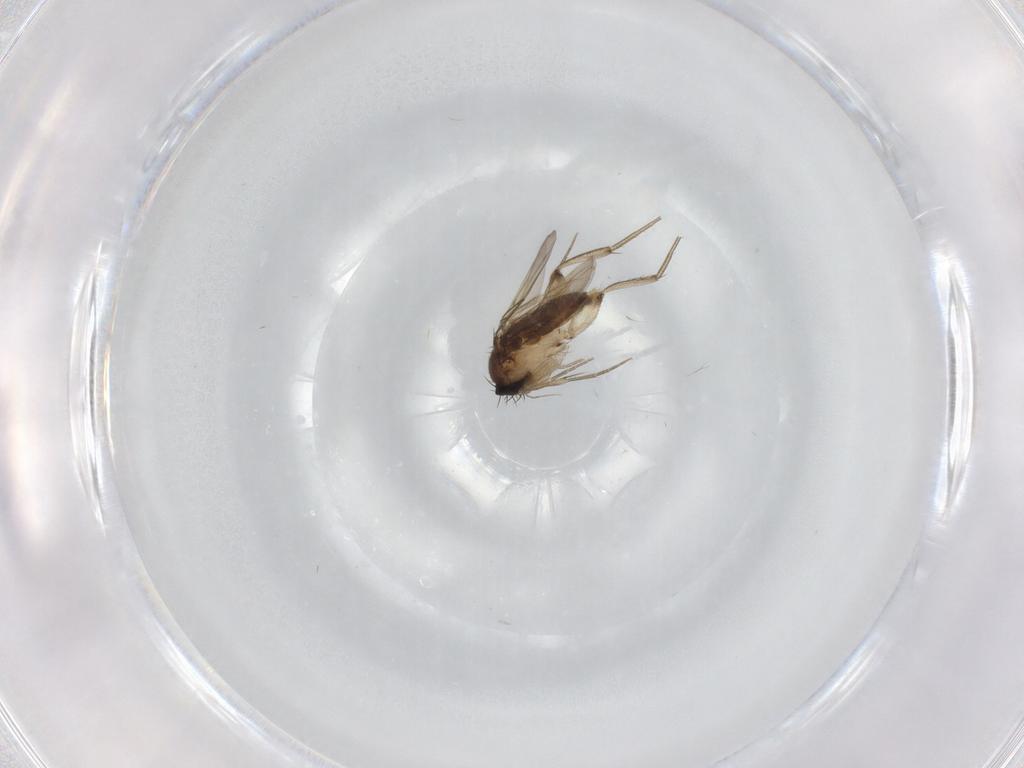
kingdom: Animalia
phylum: Arthropoda
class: Insecta
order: Diptera
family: Phoridae
